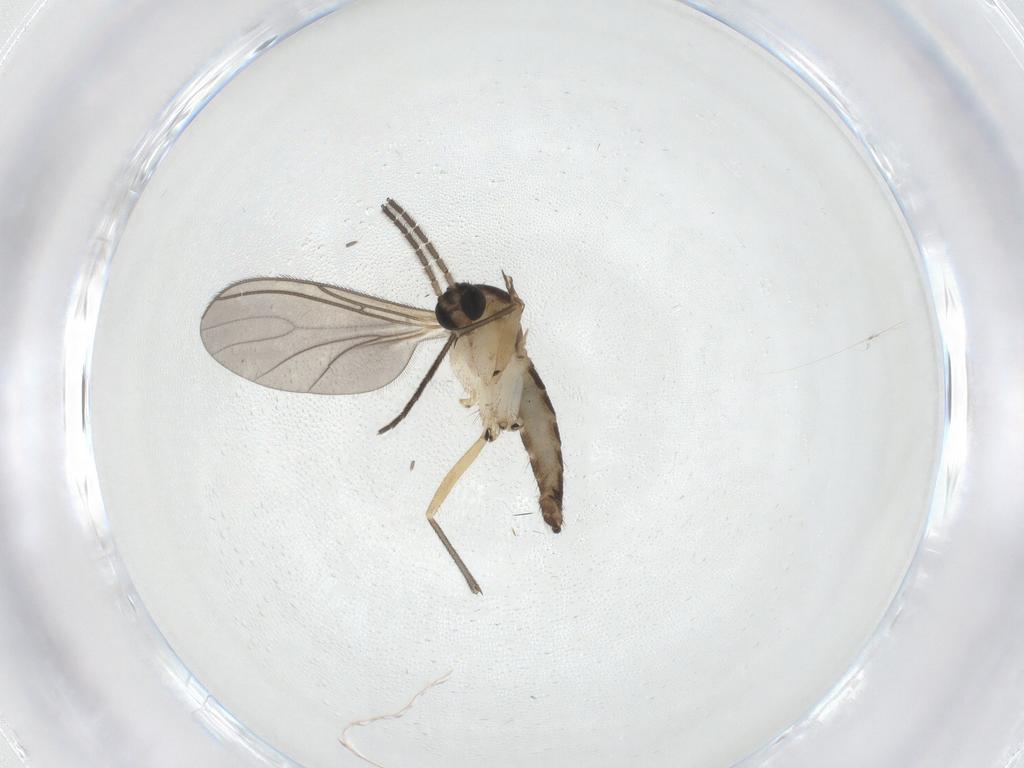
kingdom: Animalia
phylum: Arthropoda
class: Insecta
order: Diptera
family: Sciaridae
